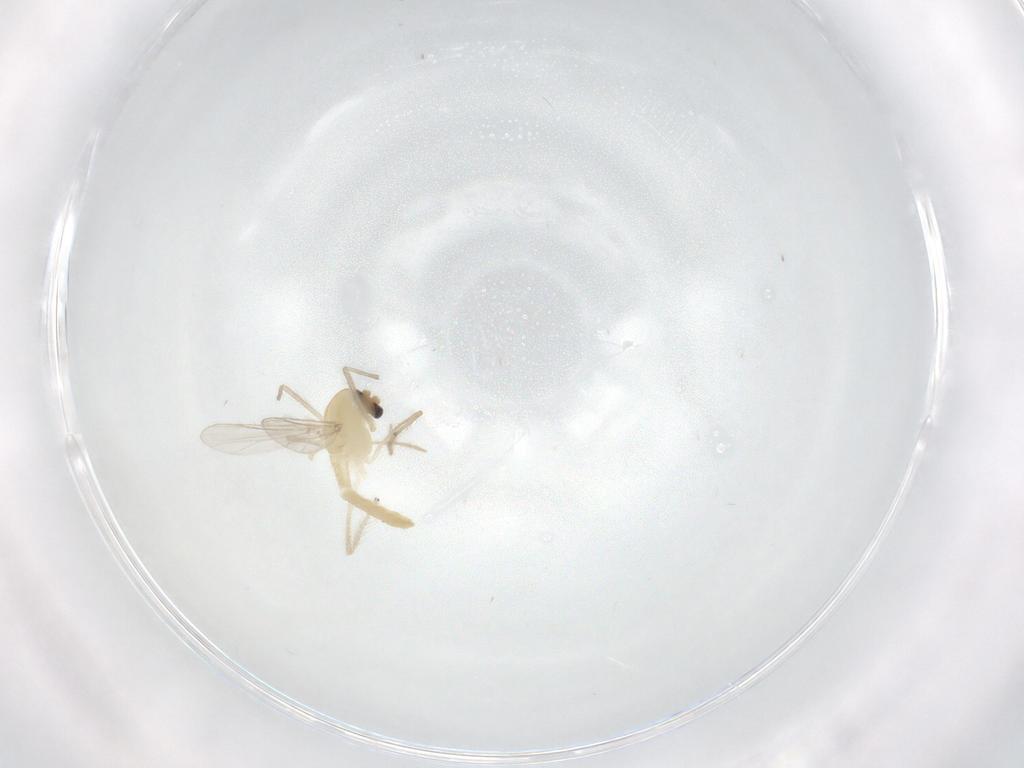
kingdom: Animalia
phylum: Arthropoda
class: Insecta
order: Diptera
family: Chironomidae
